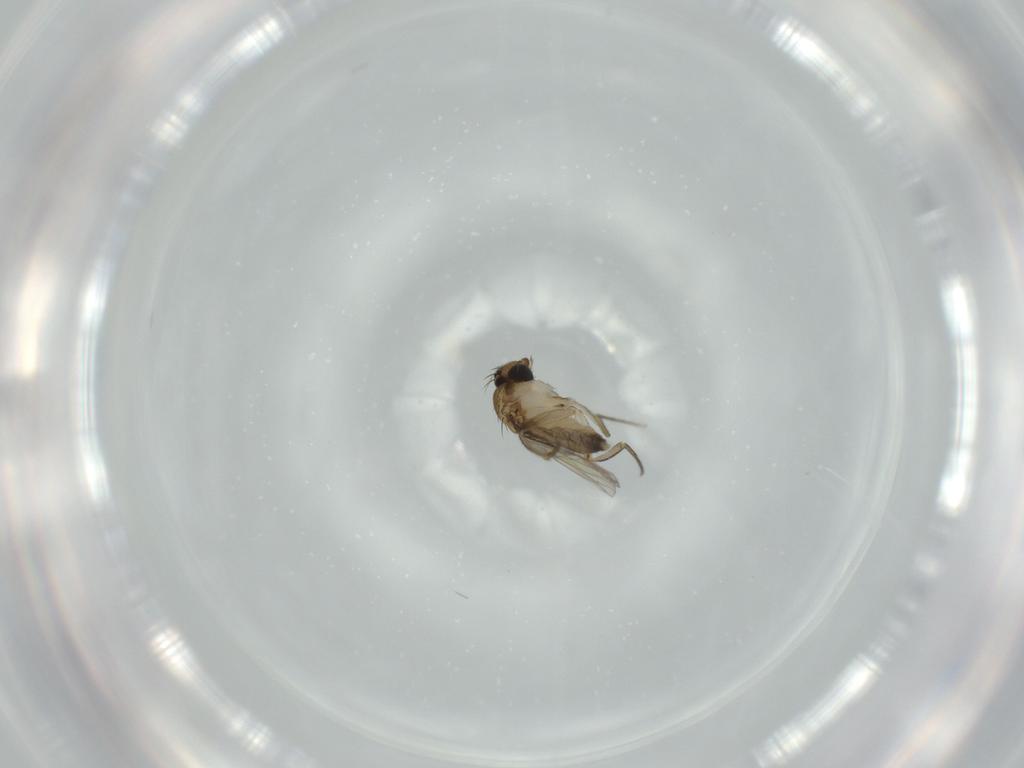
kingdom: Animalia
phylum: Arthropoda
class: Insecta
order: Diptera
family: Phoridae
